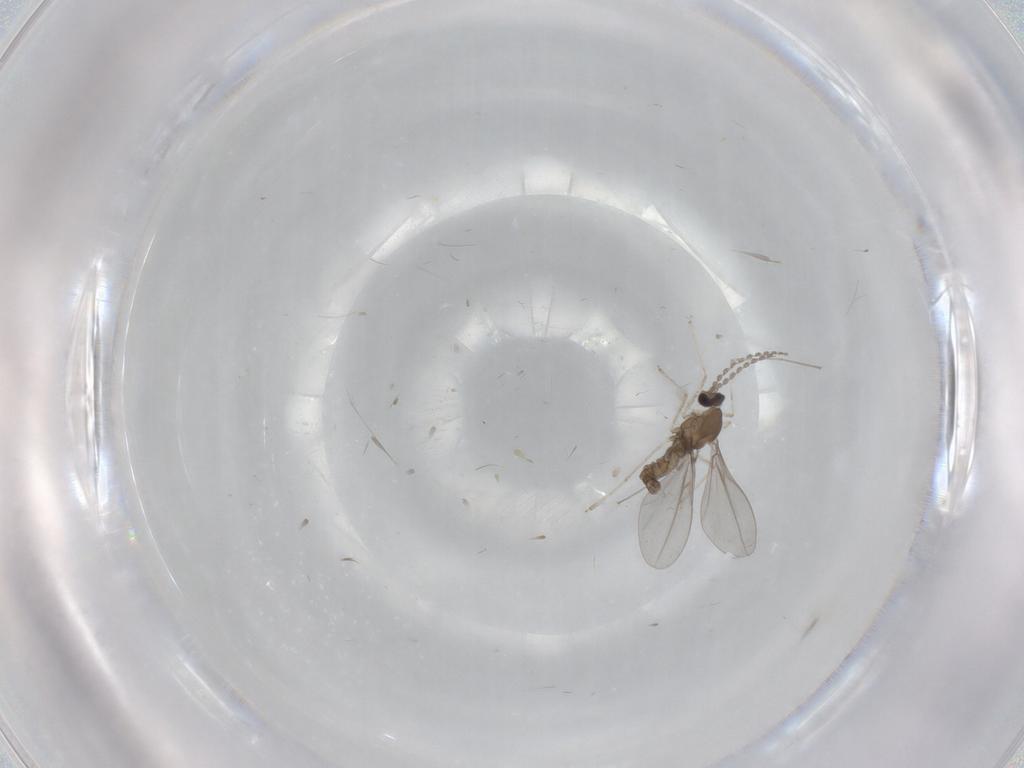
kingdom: Animalia
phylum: Arthropoda
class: Insecta
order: Diptera
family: Cecidomyiidae
